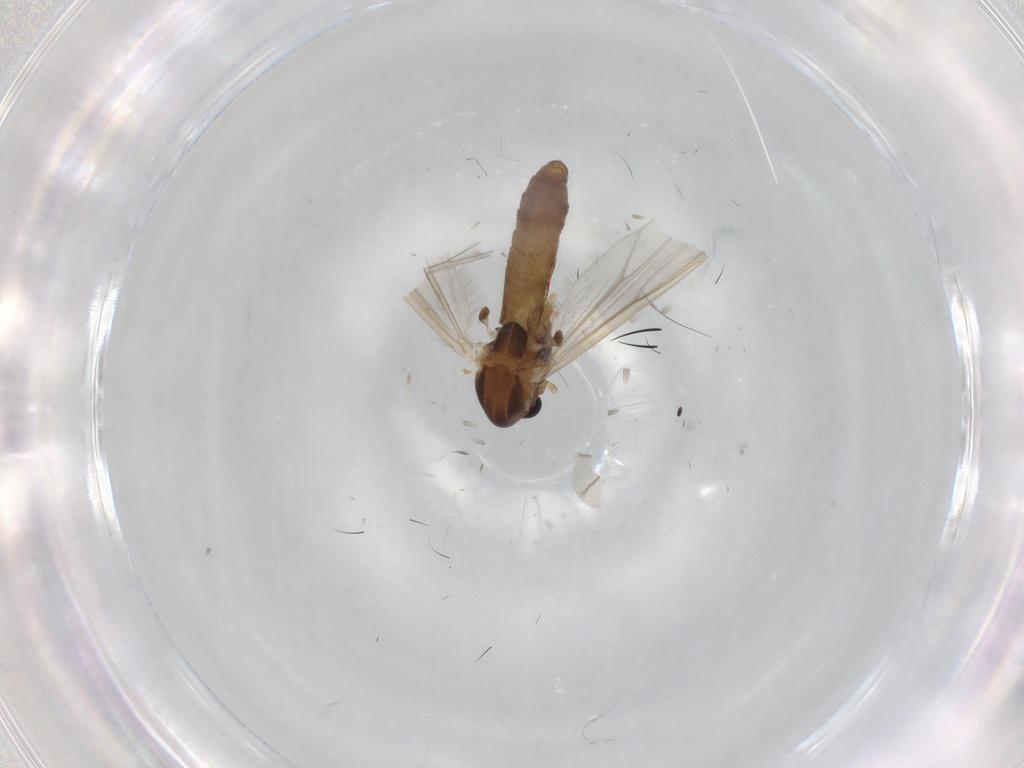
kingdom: Animalia
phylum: Arthropoda
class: Insecta
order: Diptera
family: Chironomidae
